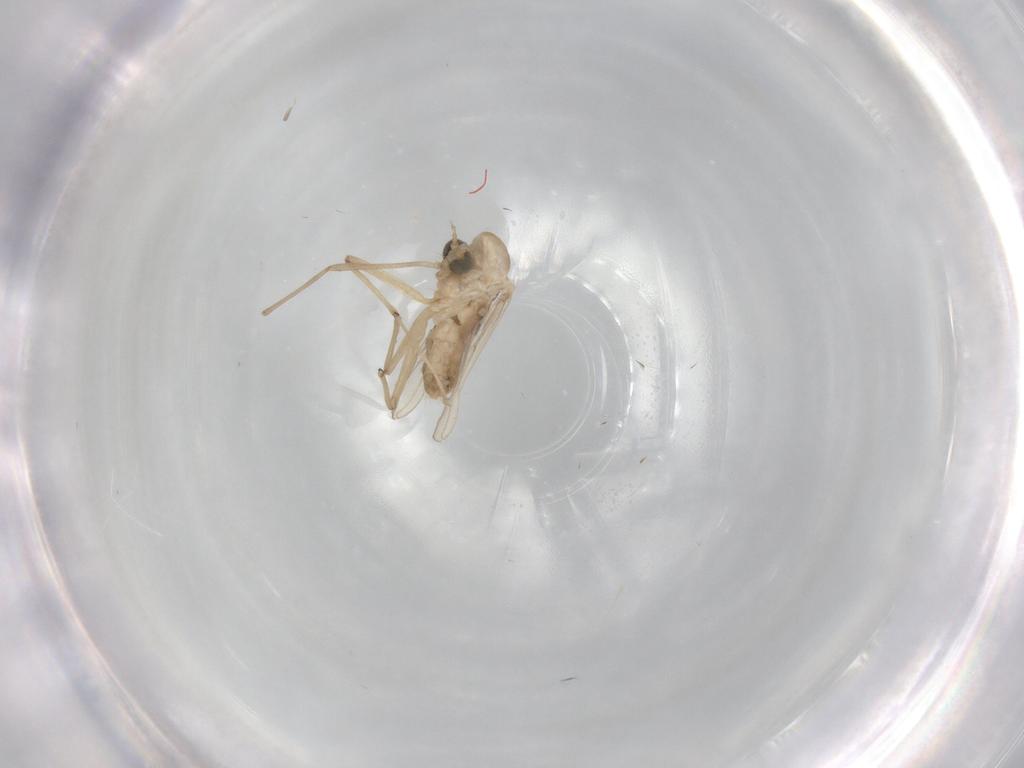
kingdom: Animalia
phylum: Arthropoda
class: Insecta
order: Diptera
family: Chironomidae
